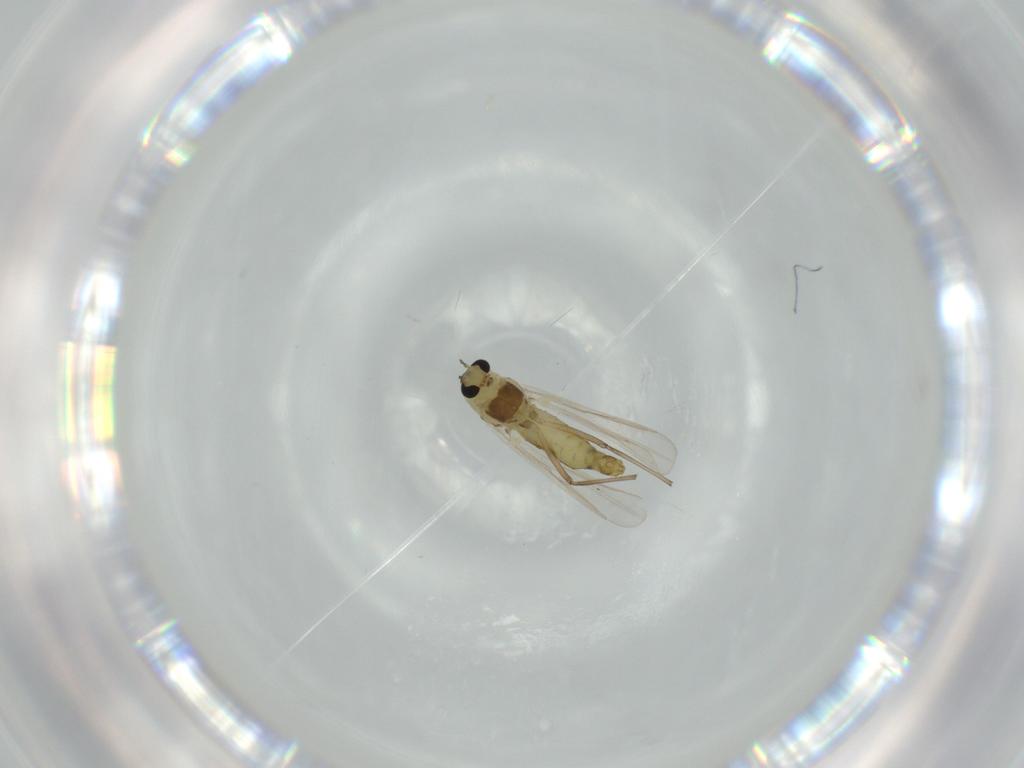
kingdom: Animalia
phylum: Arthropoda
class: Insecta
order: Diptera
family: Chironomidae
